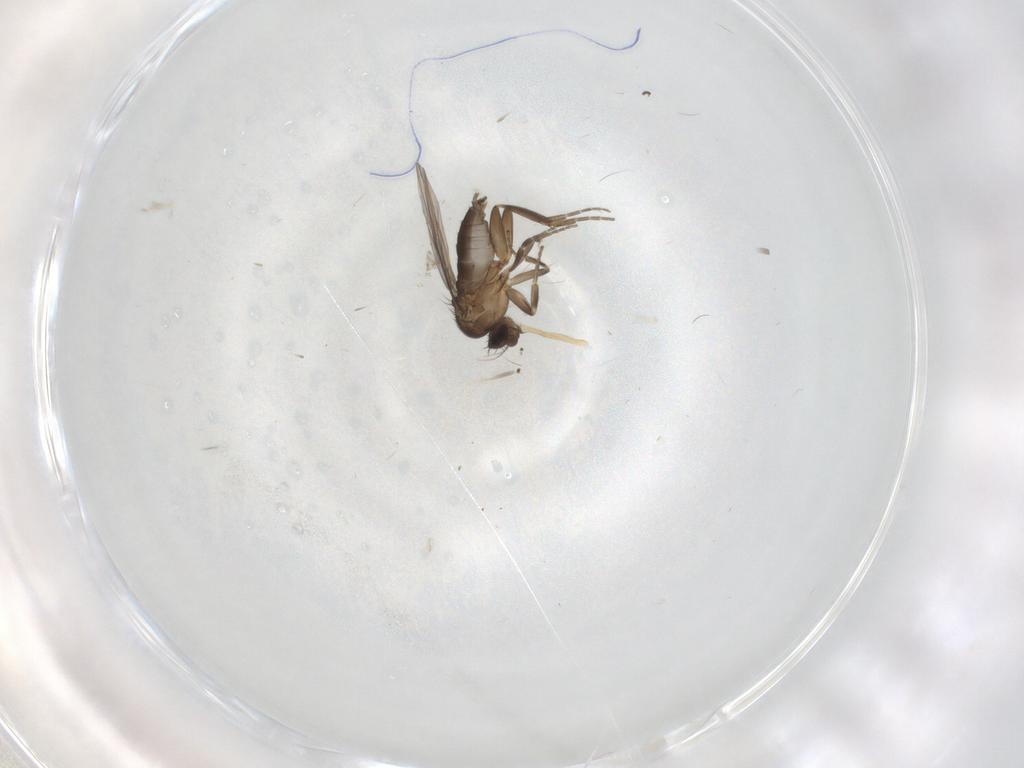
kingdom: Animalia
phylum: Arthropoda
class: Insecta
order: Diptera
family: Phoridae
